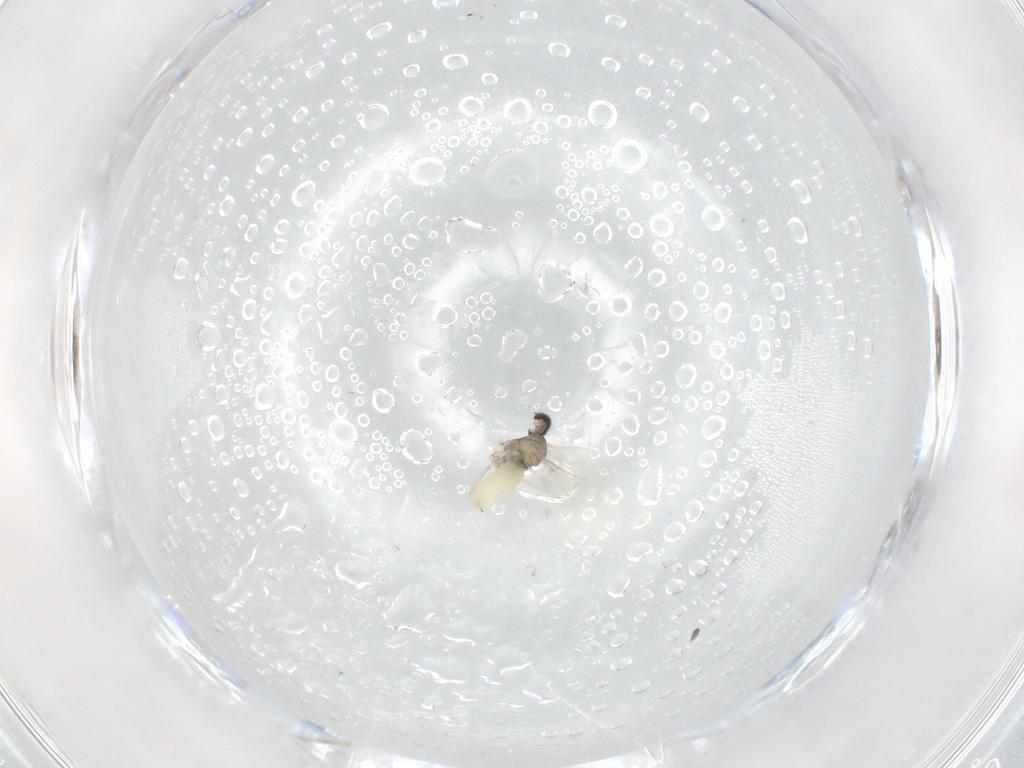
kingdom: Animalia
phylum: Arthropoda
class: Insecta
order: Diptera
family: Cecidomyiidae
